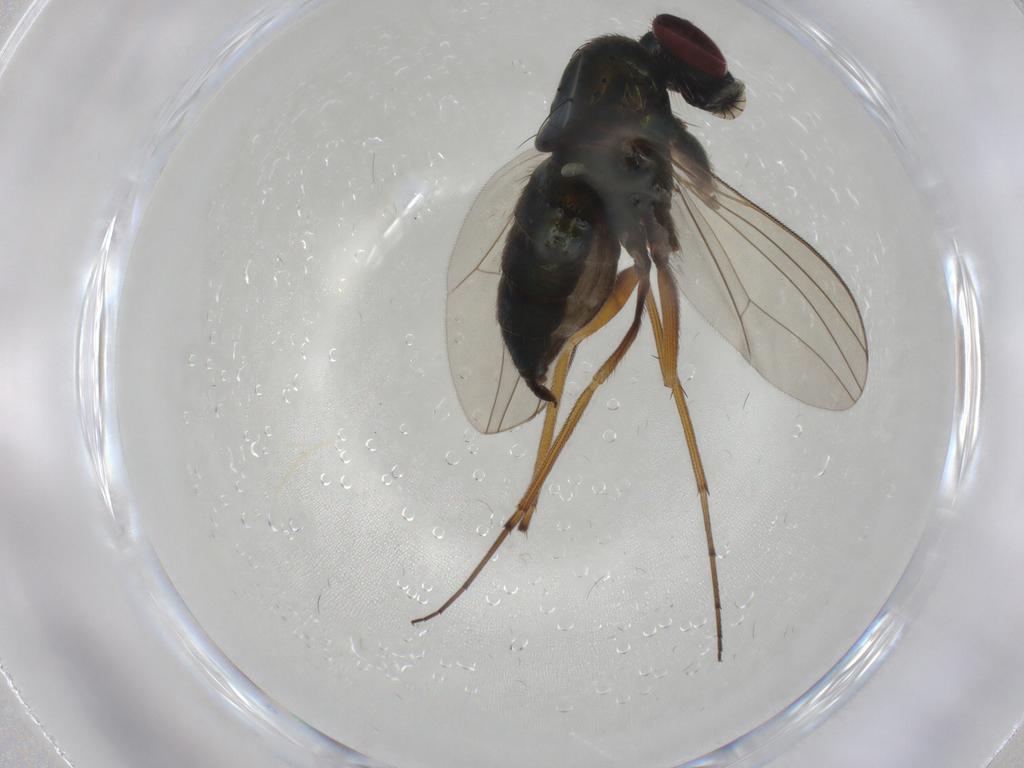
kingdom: Animalia
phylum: Arthropoda
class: Insecta
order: Diptera
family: Dolichopodidae
